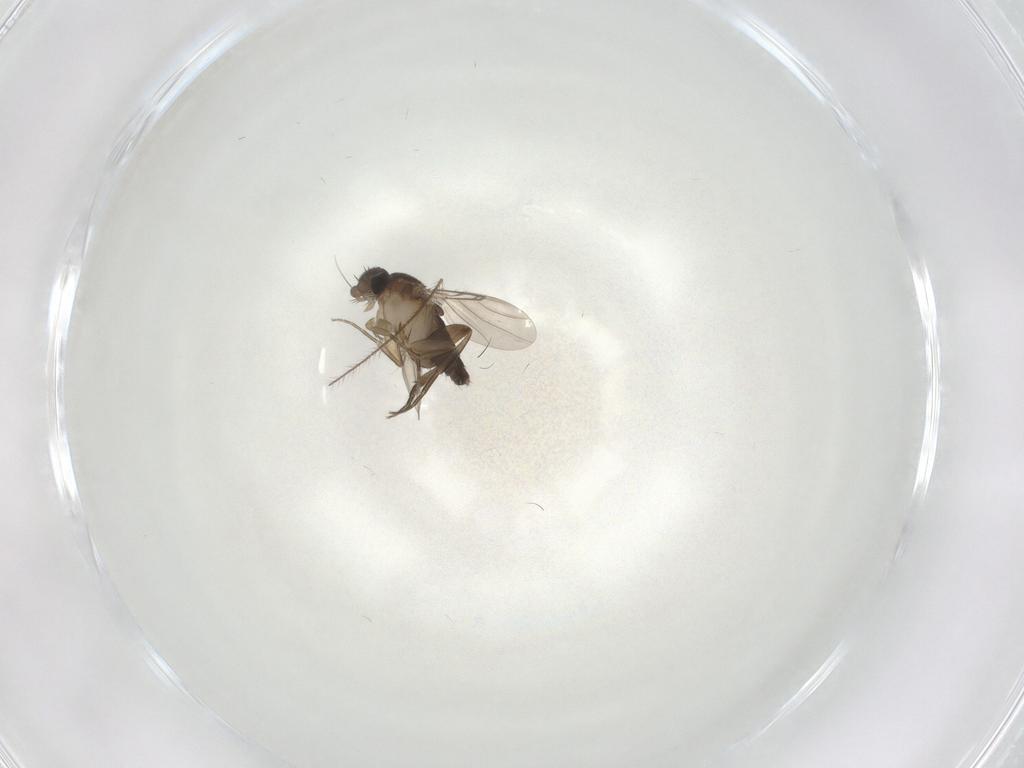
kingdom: Animalia
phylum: Arthropoda
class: Insecta
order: Diptera
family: Phoridae
